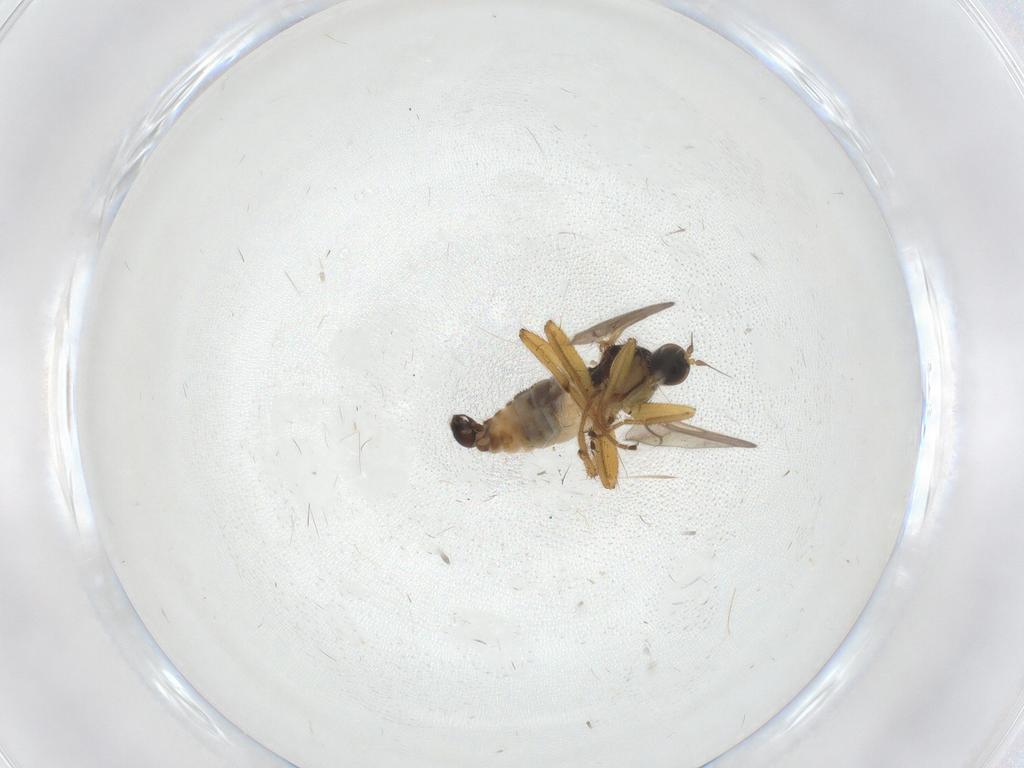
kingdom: Animalia
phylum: Arthropoda
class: Insecta
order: Diptera
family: Hybotidae
